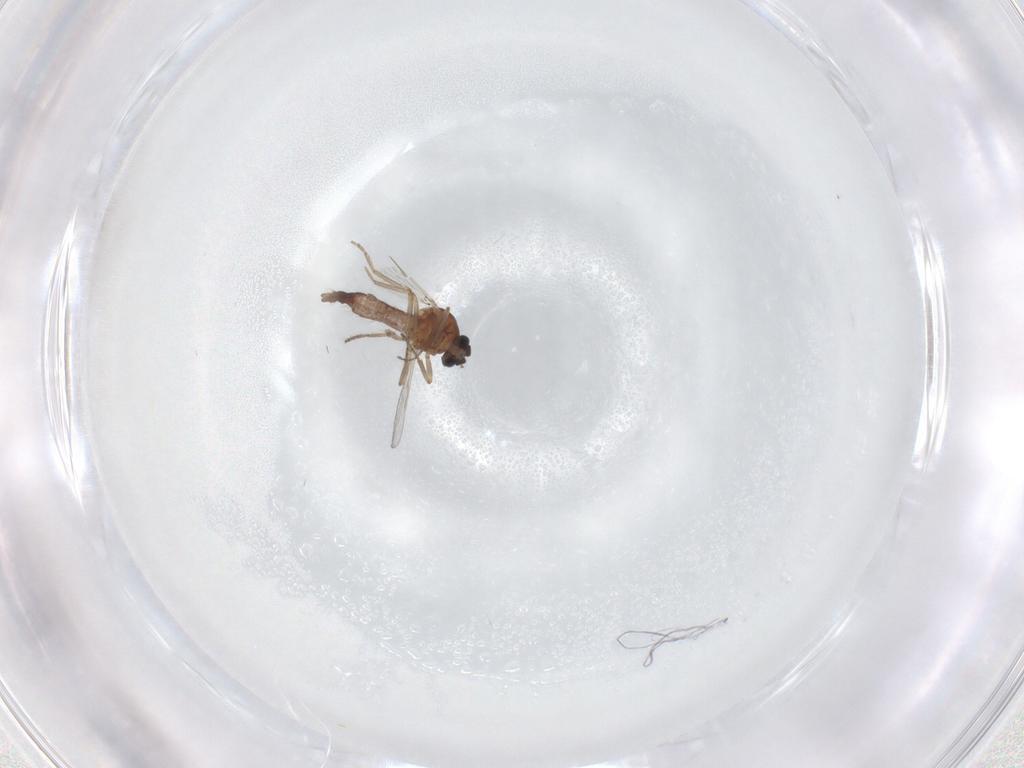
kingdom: Animalia
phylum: Arthropoda
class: Insecta
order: Diptera
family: Ceratopogonidae
